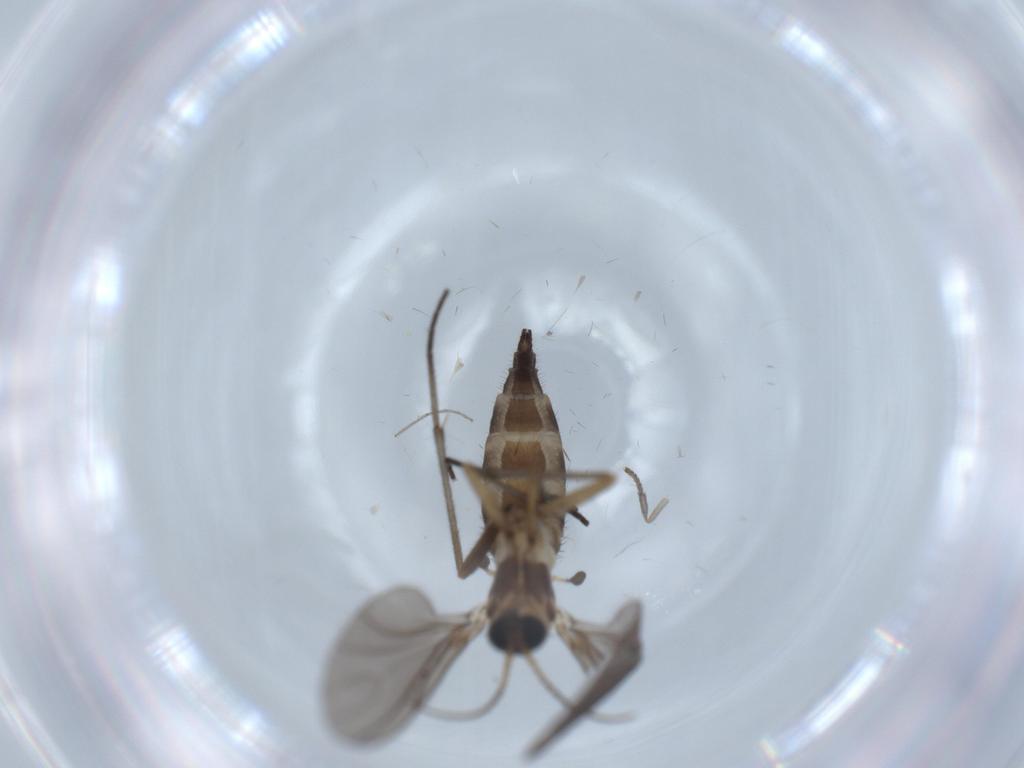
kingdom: Animalia
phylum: Arthropoda
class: Insecta
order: Diptera
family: Sciaridae
